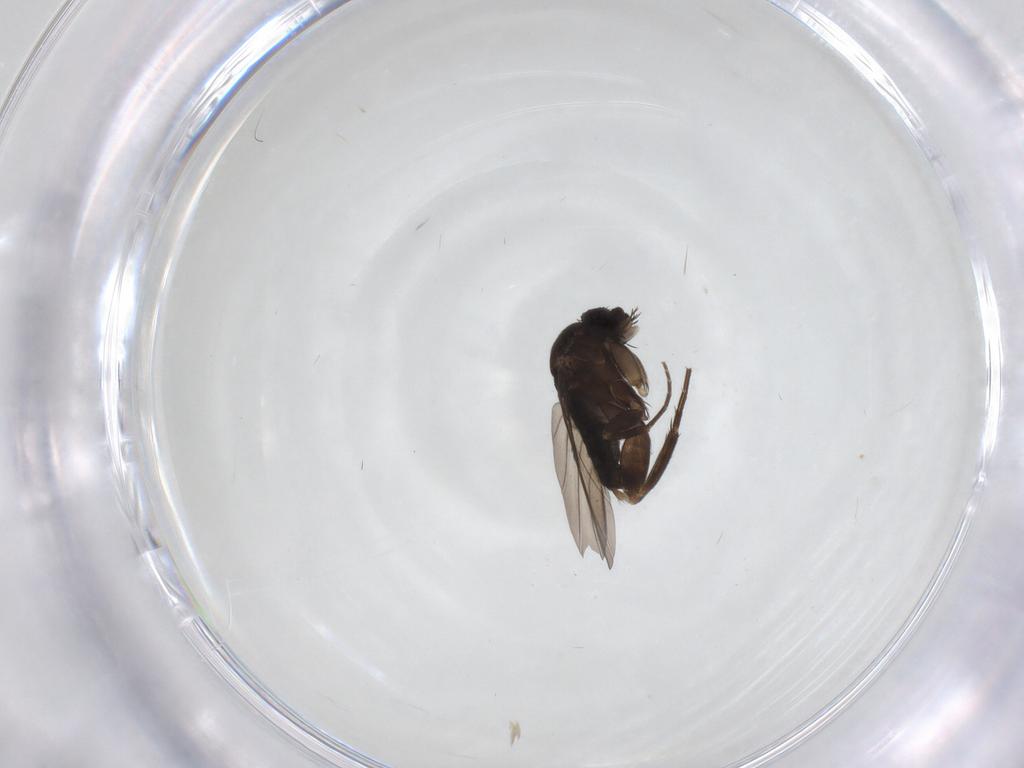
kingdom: Animalia
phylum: Arthropoda
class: Insecta
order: Diptera
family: Phoridae
